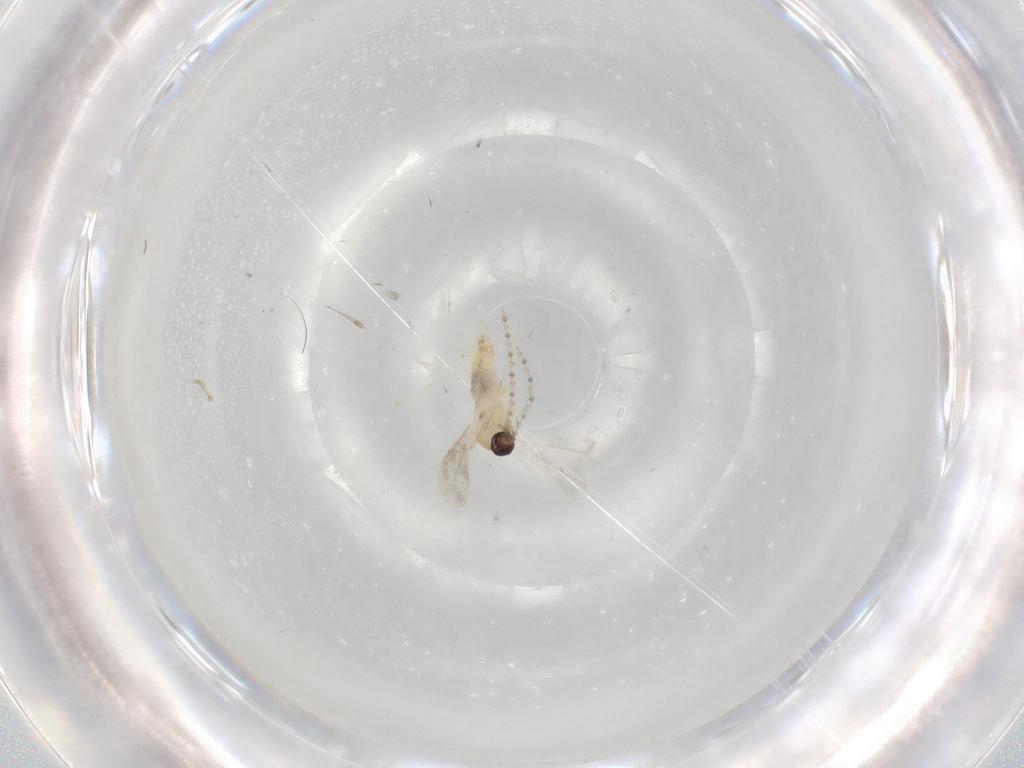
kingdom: Animalia
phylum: Arthropoda
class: Insecta
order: Diptera
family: Cecidomyiidae
